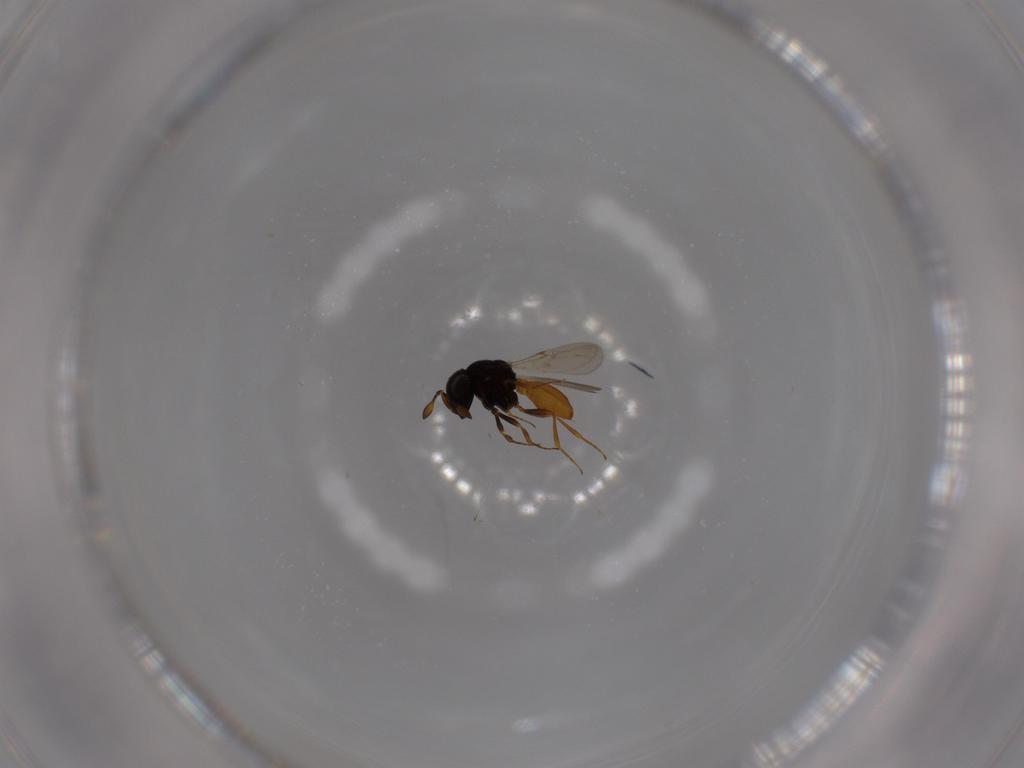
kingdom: Animalia
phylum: Arthropoda
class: Insecta
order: Hymenoptera
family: Scelionidae
